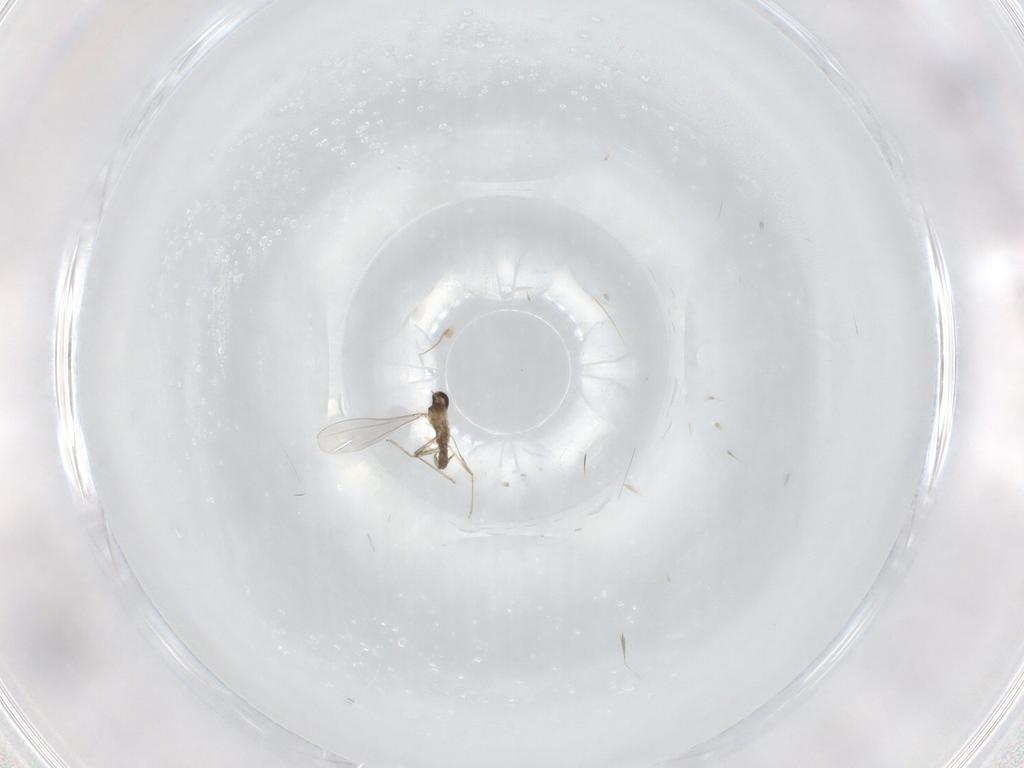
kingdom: Animalia
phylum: Arthropoda
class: Insecta
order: Diptera
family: Cecidomyiidae
